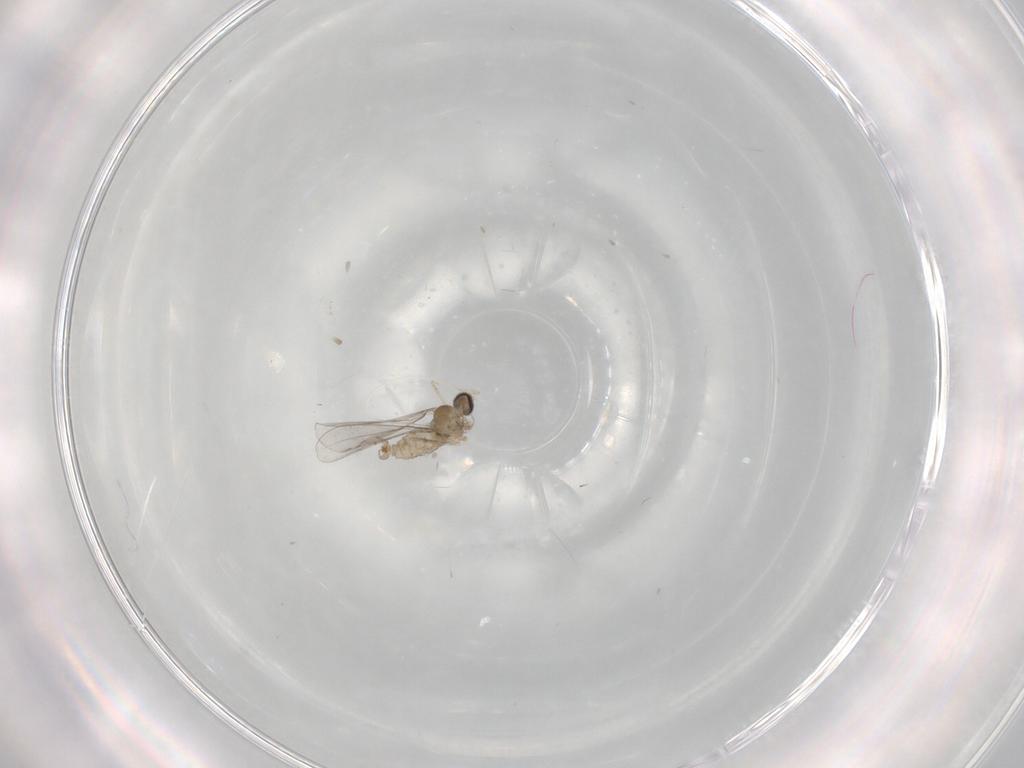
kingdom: Animalia
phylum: Arthropoda
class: Insecta
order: Diptera
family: Cecidomyiidae
